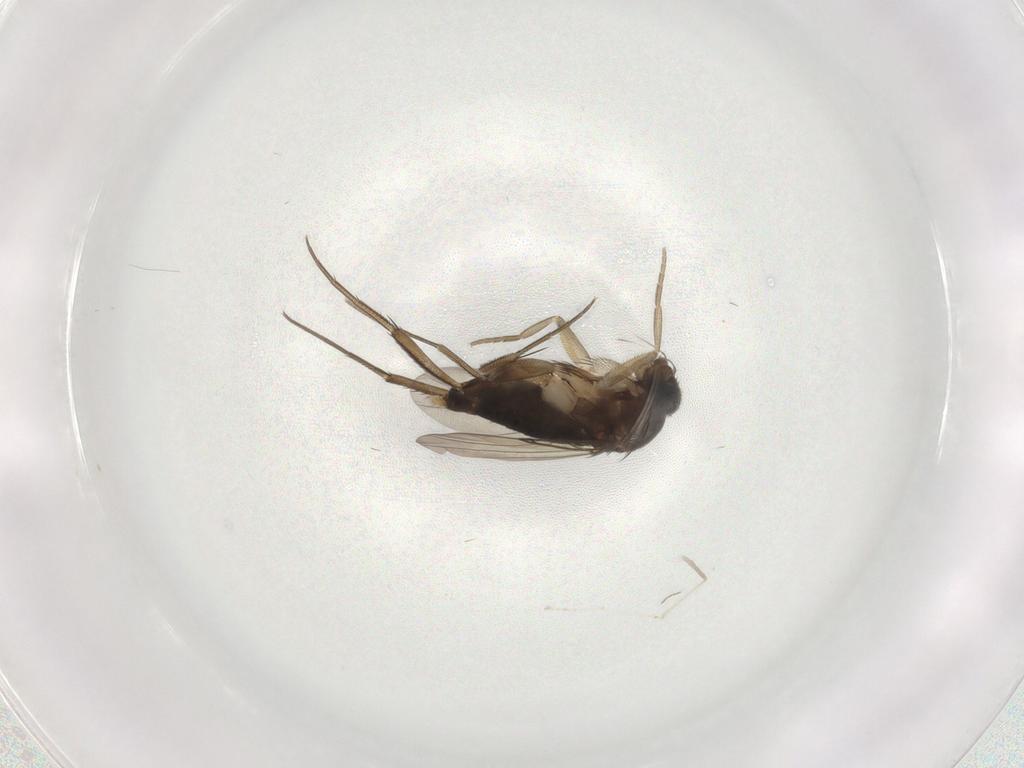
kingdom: Animalia
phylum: Arthropoda
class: Insecta
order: Diptera
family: Phoridae
